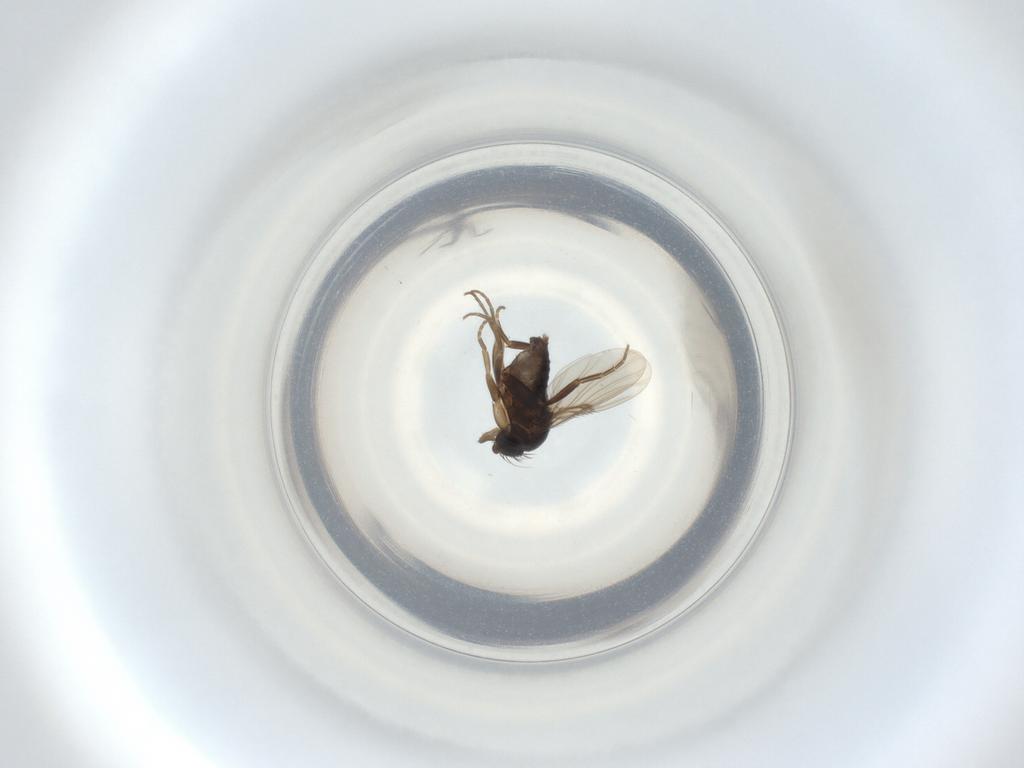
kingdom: Animalia
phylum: Arthropoda
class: Insecta
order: Diptera
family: Phoridae
